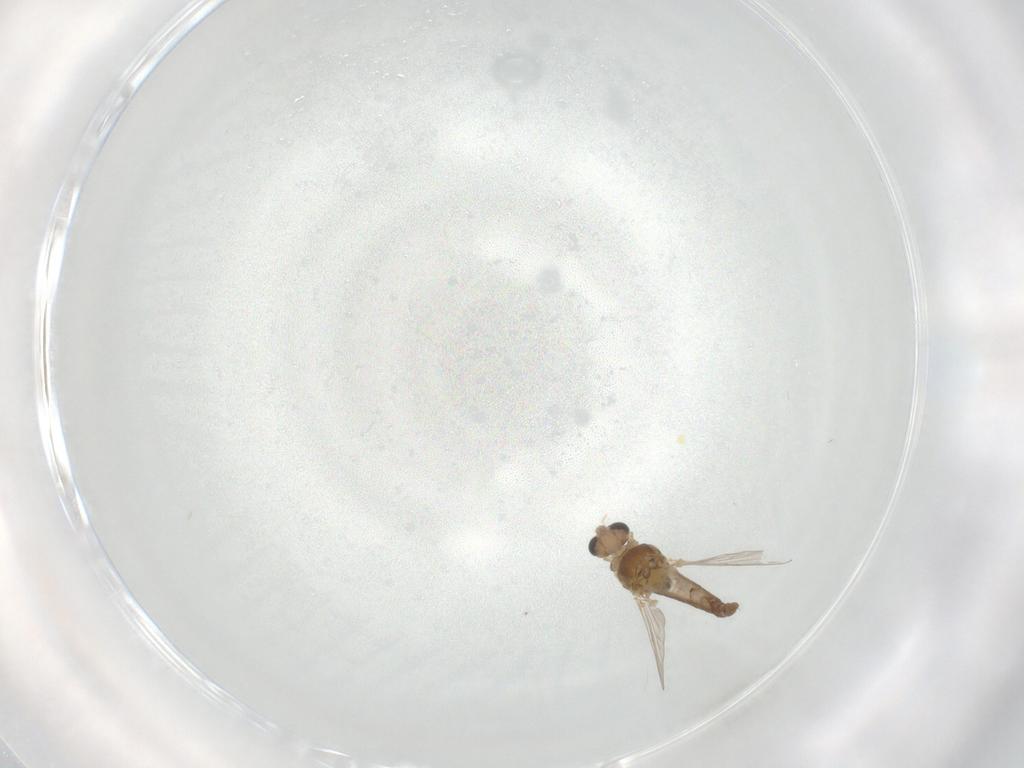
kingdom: Animalia
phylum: Arthropoda
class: Insecta
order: Diptera
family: Chironomidae
